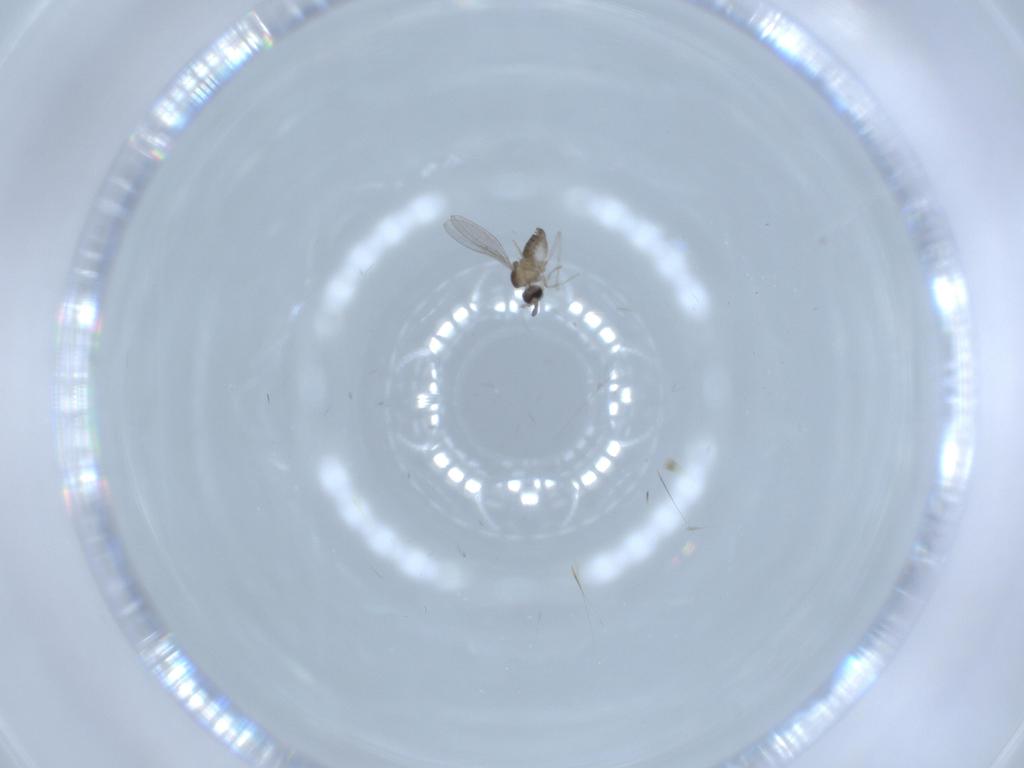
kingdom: Animalia
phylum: Arthropoda
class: Insecta
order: Diptera
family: Cecidomyiidae
